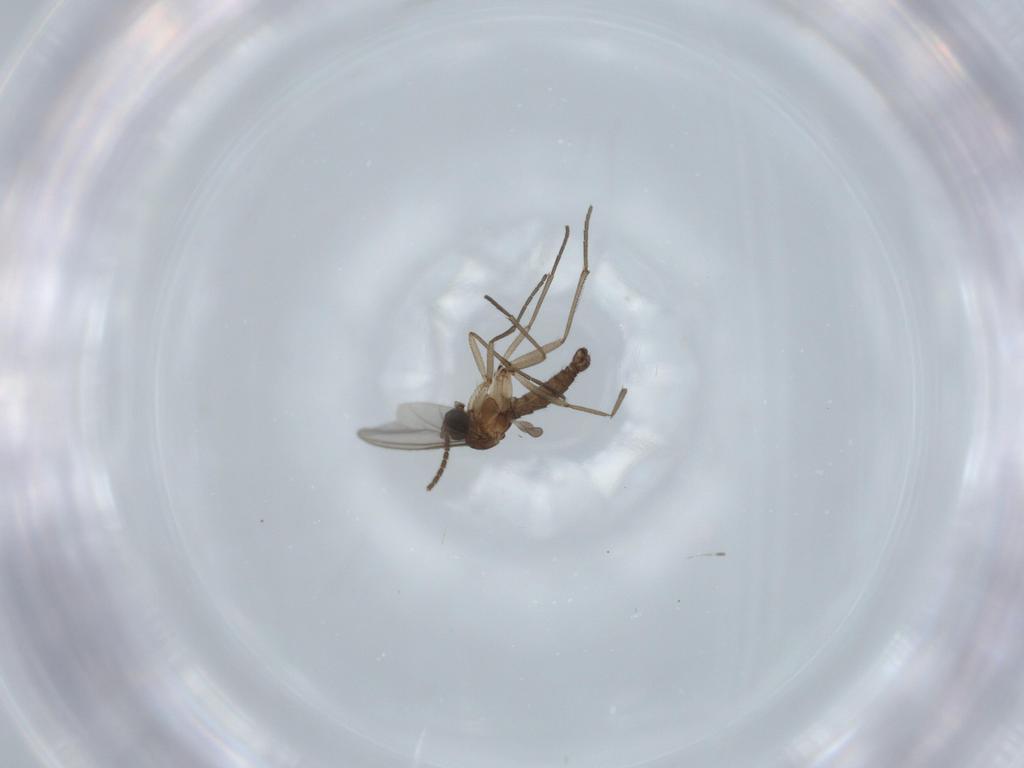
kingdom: Animalia
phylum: Arthropoda
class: Insecta
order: Diptera
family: Sciaridae
